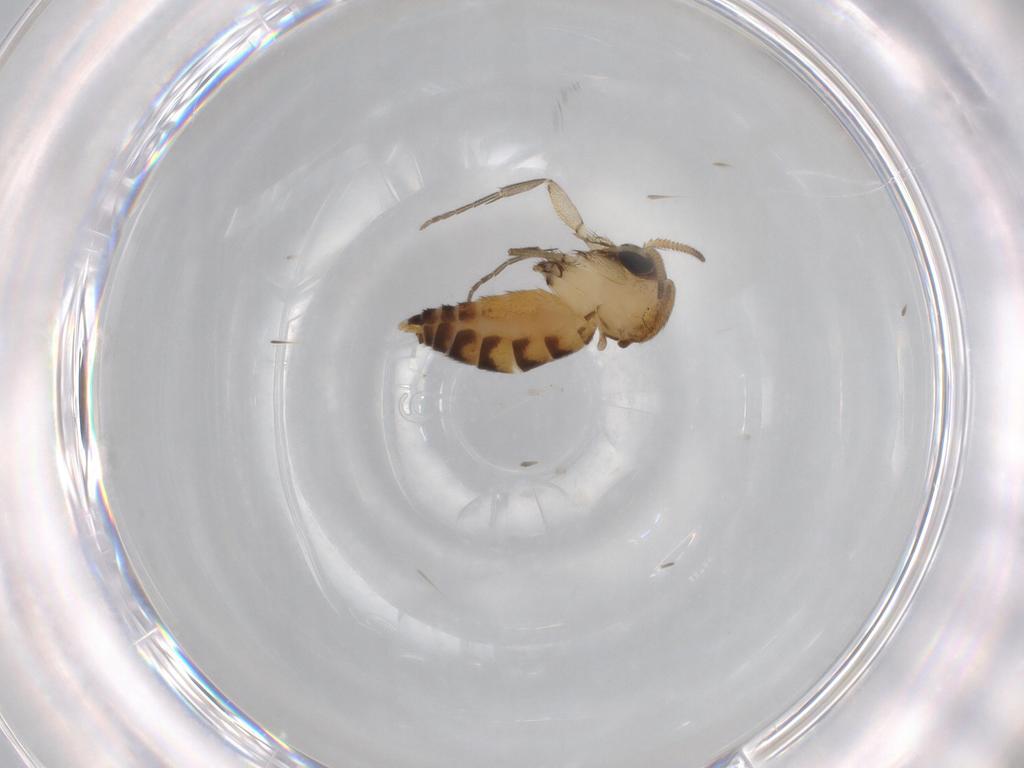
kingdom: Animalia
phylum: Arthropoda
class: Insecta
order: Diptera
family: Mycetophilidae
